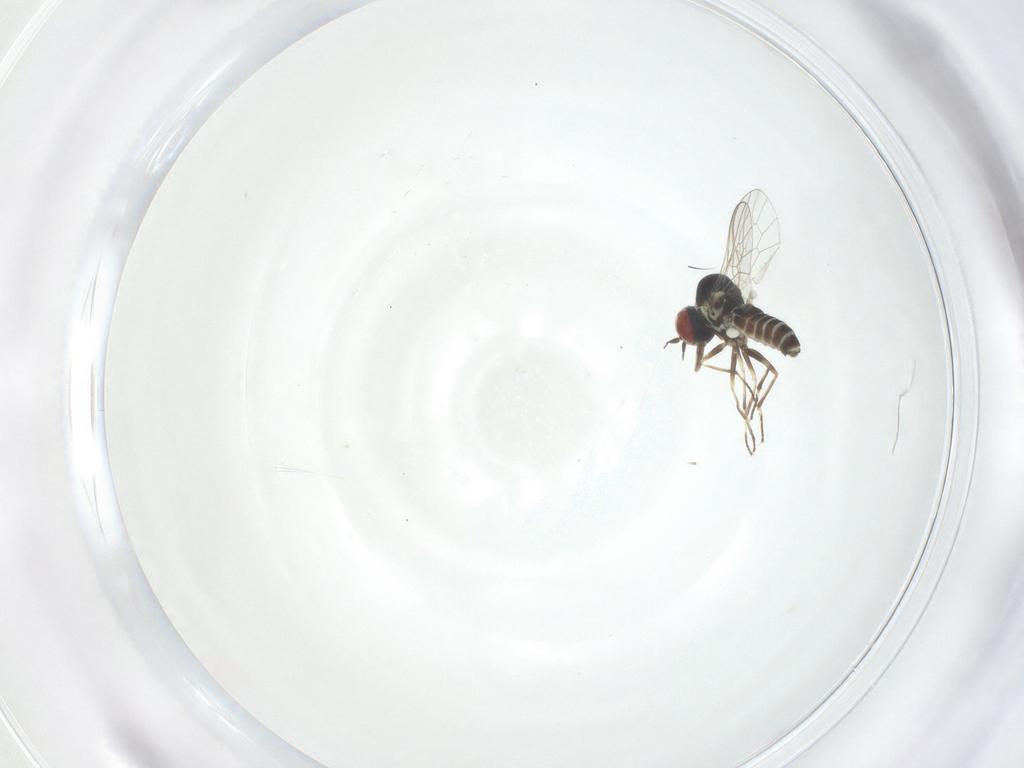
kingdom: Animalia
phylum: Arthropoda
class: Insecta
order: Diptera
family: Mythicomyiidae
